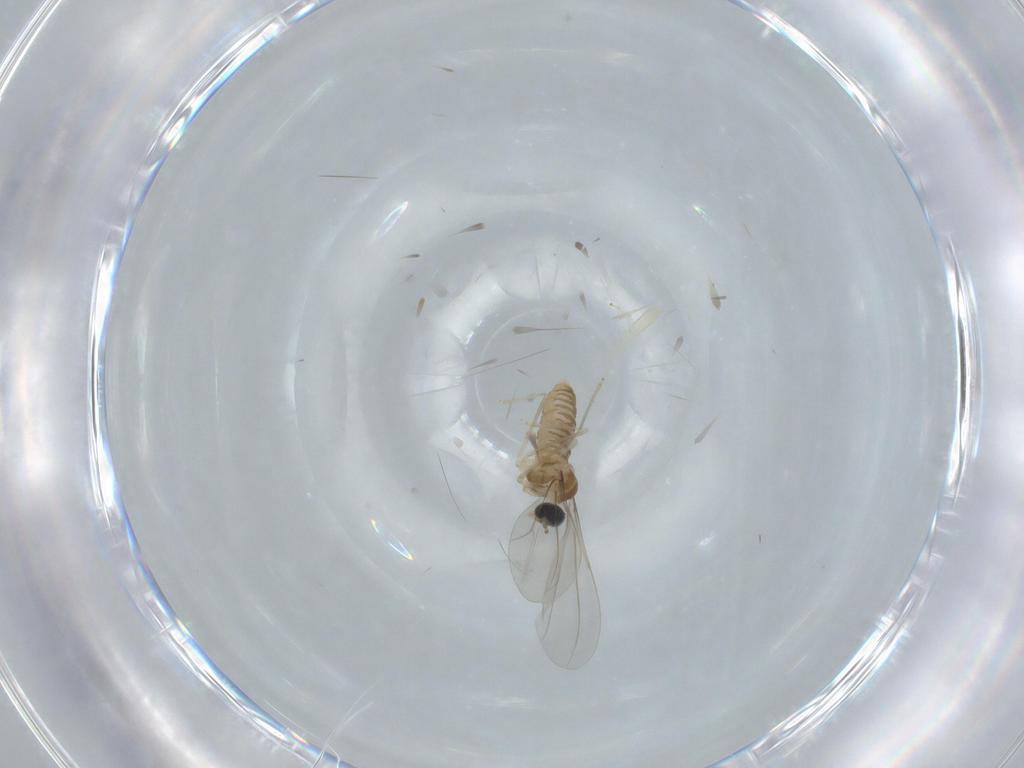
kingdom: Animalia
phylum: Arthropoda
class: Insecta
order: Diptera
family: Cecidomyiidae
